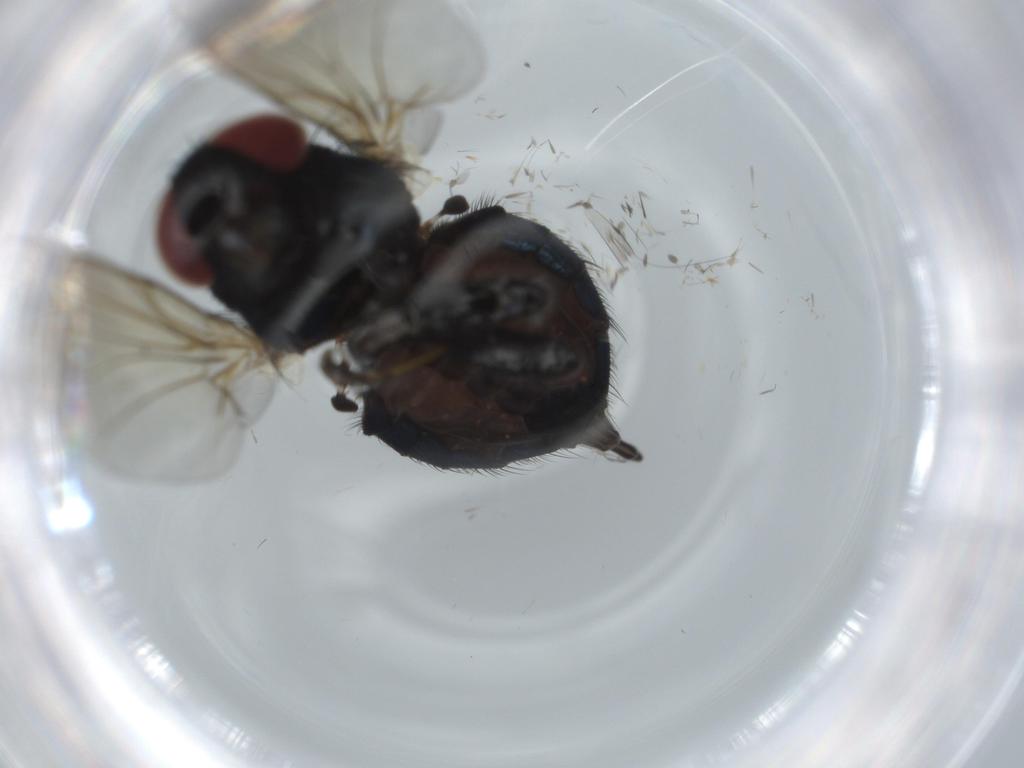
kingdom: Animalia
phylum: Arthropoda
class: Insecta
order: Diptera
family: Lonchaeidae
